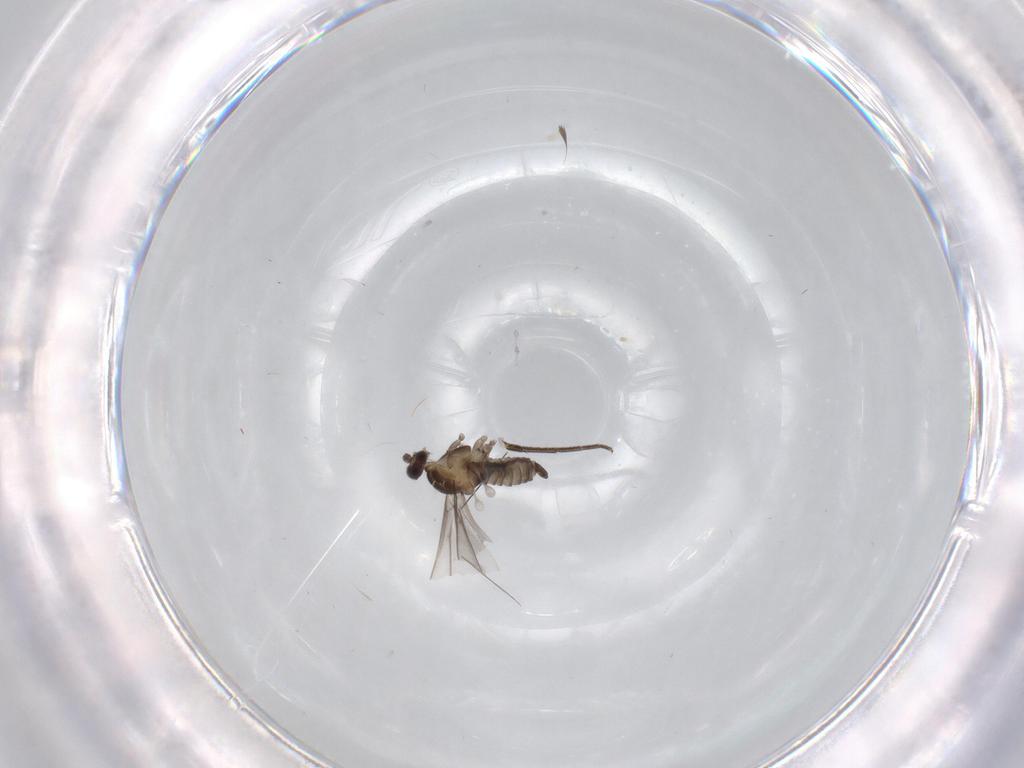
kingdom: Animalia
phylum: Arthropoda
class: Insecta
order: Diptera
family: Cecidomyiidae
